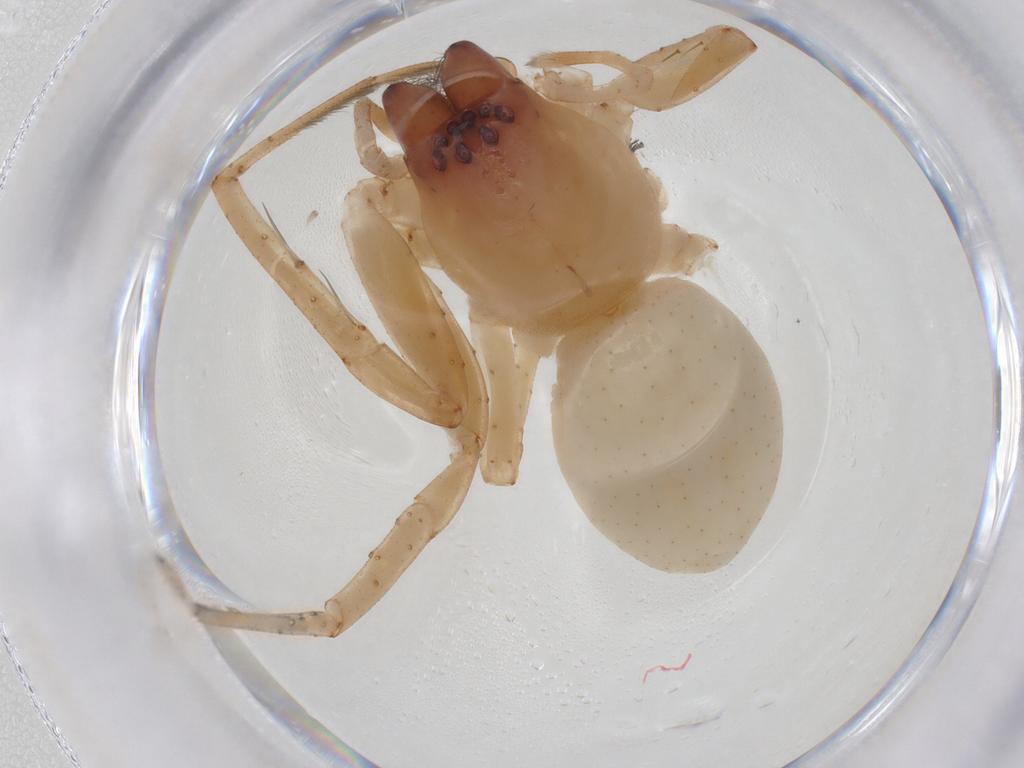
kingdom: Animalia
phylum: Arthropoda
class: Arachnida
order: Araneae
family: Anyphaenidae
